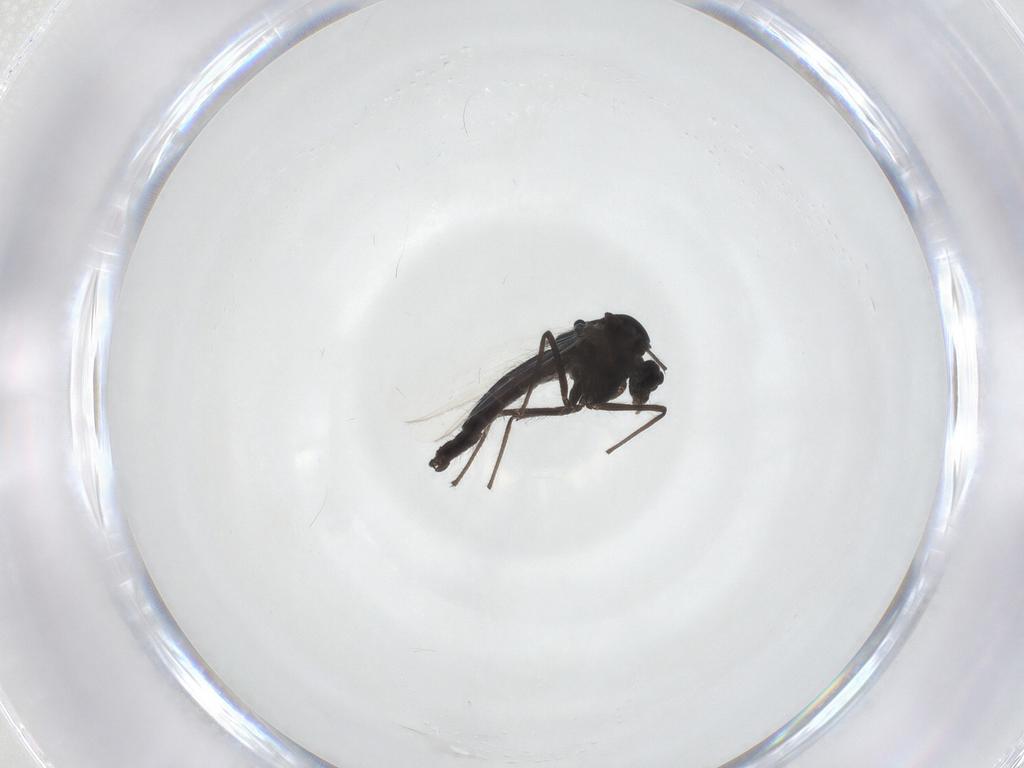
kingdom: Animalia
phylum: Arthropoda
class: Insecta
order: Diptera
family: Chironomidae
